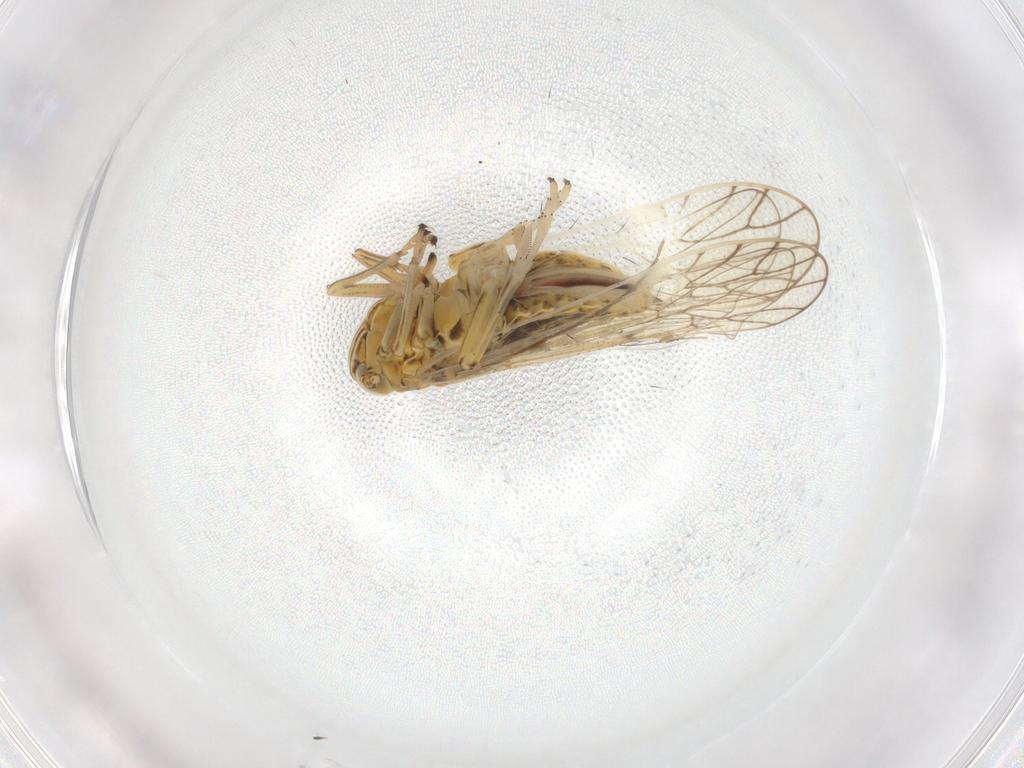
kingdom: Animalia
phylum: Arthropoda
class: Insecta
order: Hemiptera
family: Delphacidae
